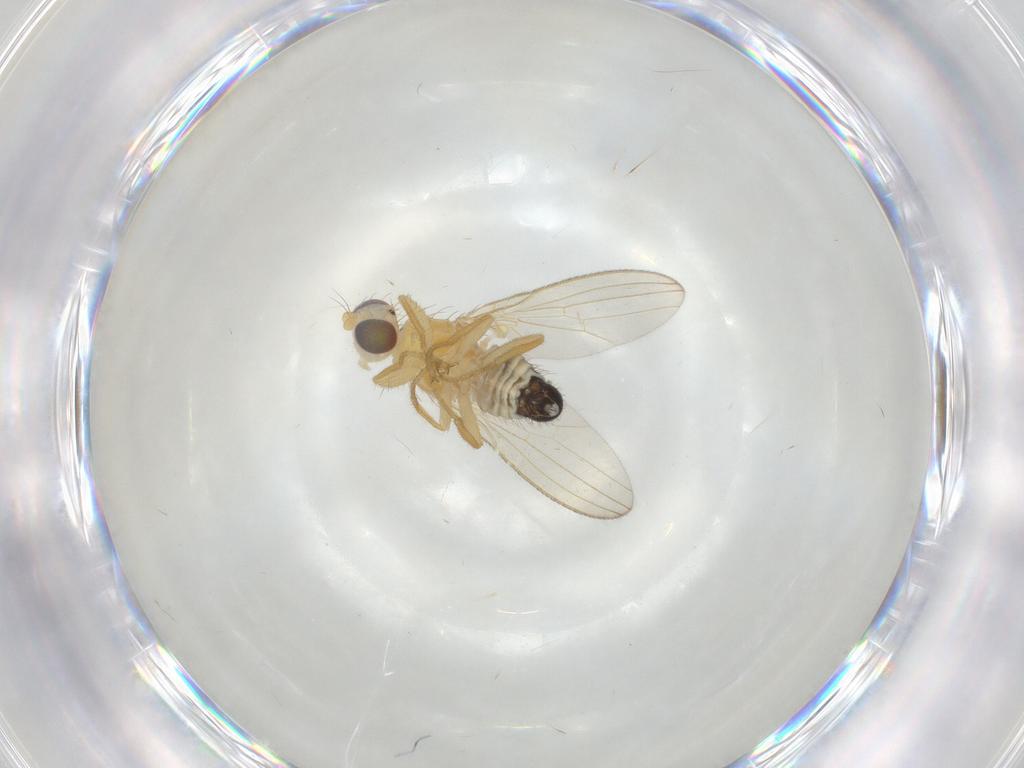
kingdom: Animalia
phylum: Arthropoda
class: Insecta
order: Diptera
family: Chyromyidae
